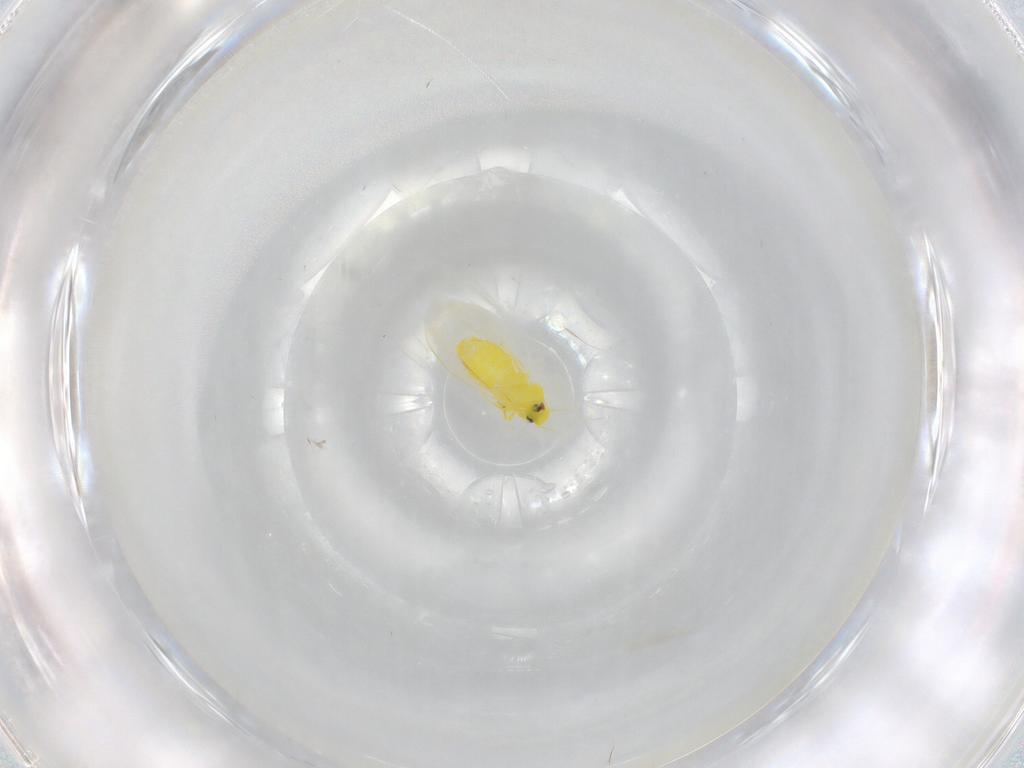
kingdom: Animalia
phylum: Arthropoda
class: Insecta
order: Hemiptera
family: Aleyrodidae
